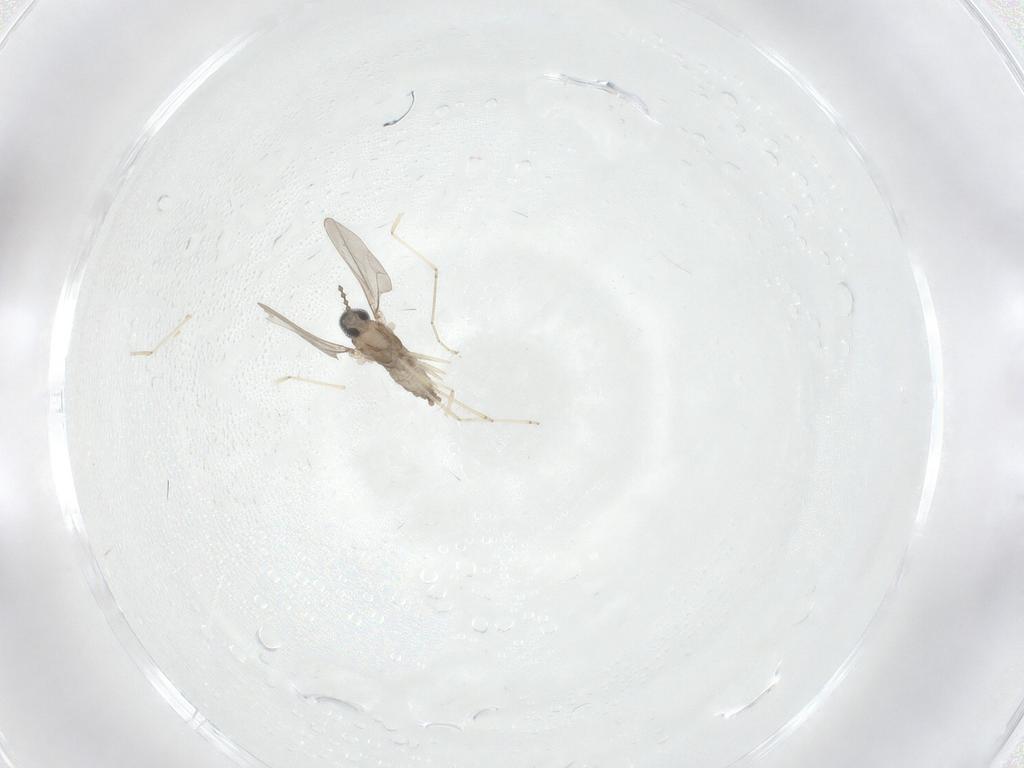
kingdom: Animalia
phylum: Arthropoda
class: Insecta
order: Diptera
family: Cecidomyiidae
